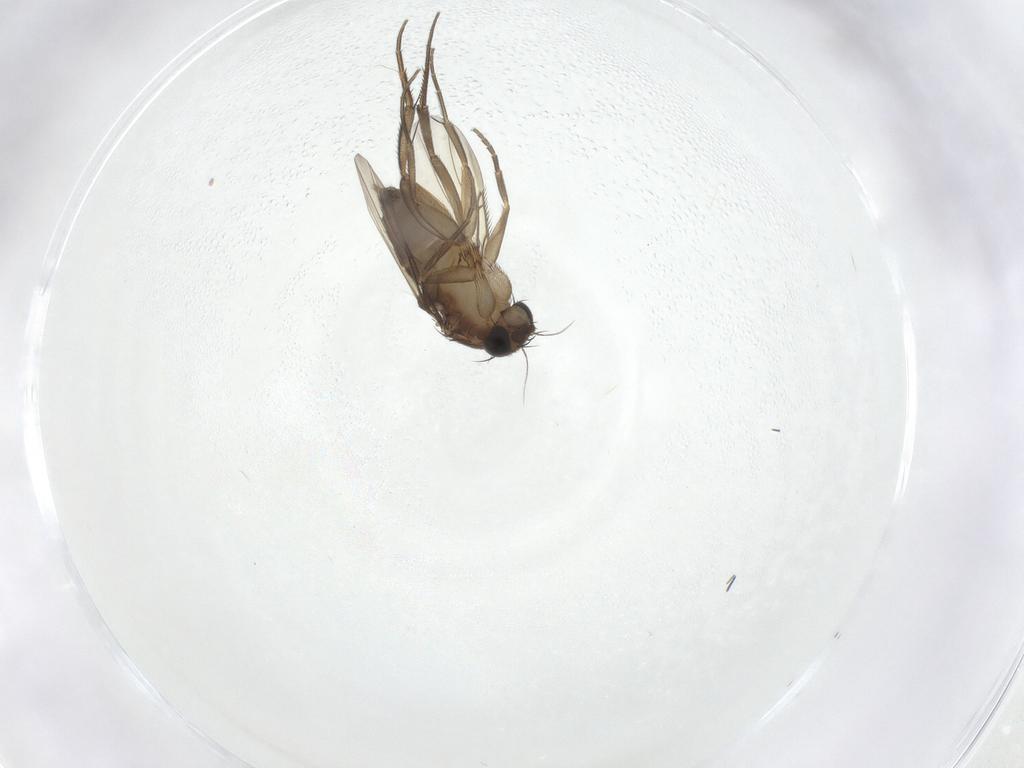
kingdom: Animalia
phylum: Arthropoda
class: Insecta
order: Diptera
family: Phoridae
